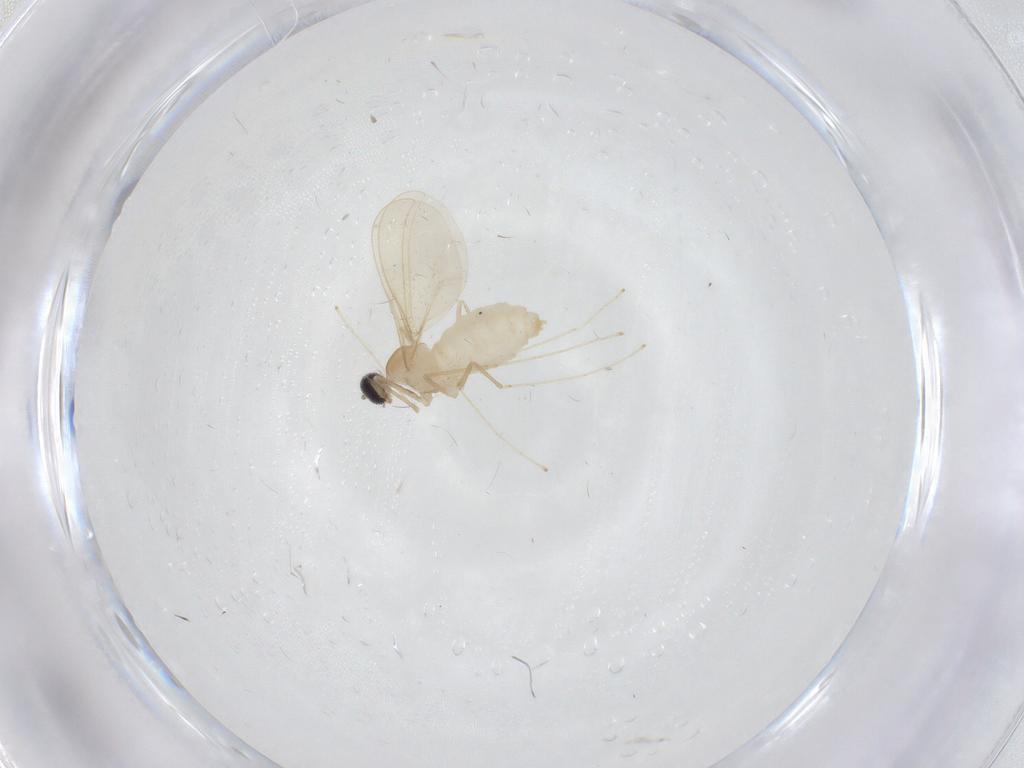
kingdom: Animalia
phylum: Arthropoda
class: Insecta
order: Diptera
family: Cecidomyiidae
